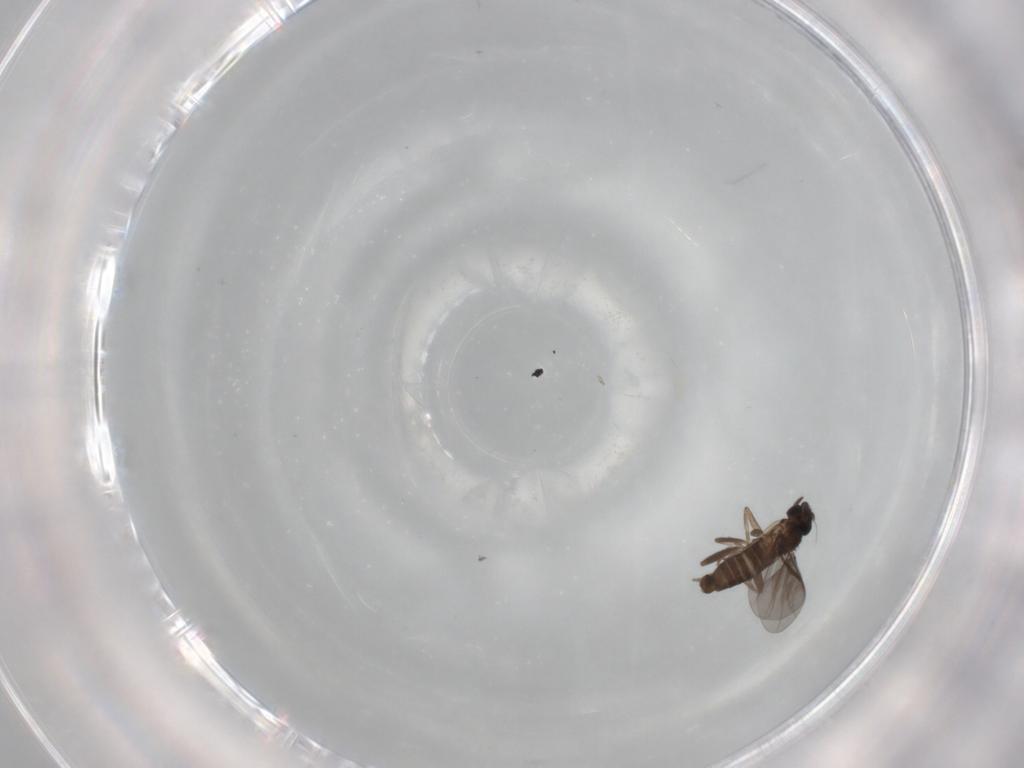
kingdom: Animalia
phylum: Arthropoda
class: Insecta
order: Diptera
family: Phoridae
